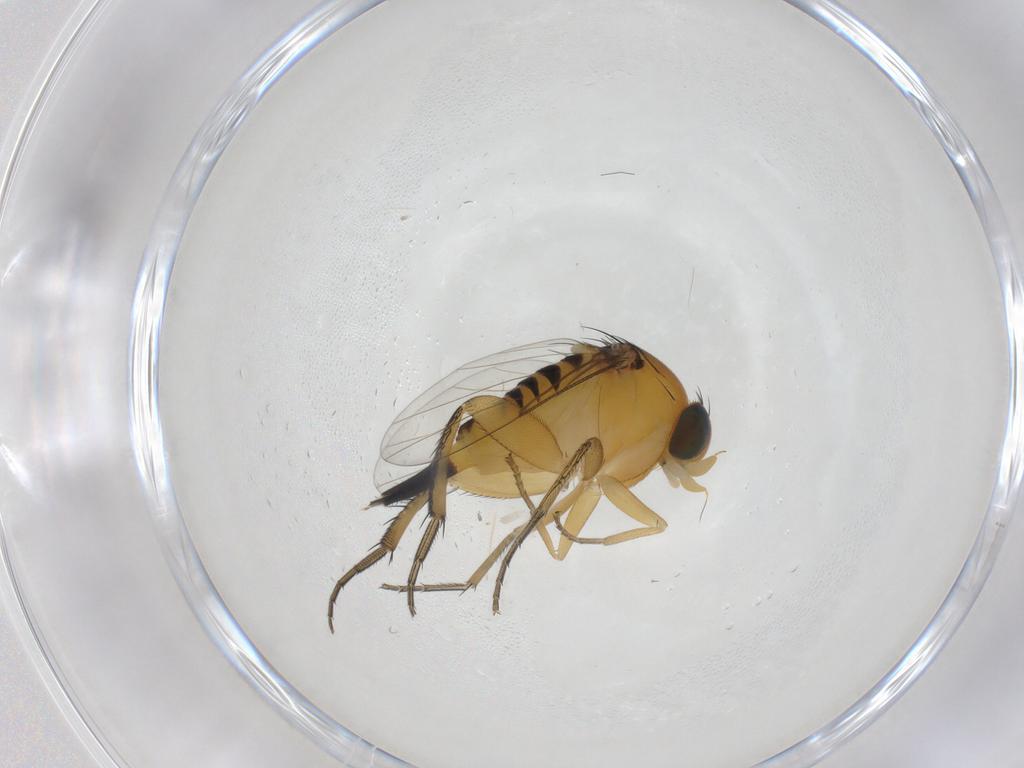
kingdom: Animalia
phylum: Arthropoda
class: Insecta
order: Diptera
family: Phoridae
